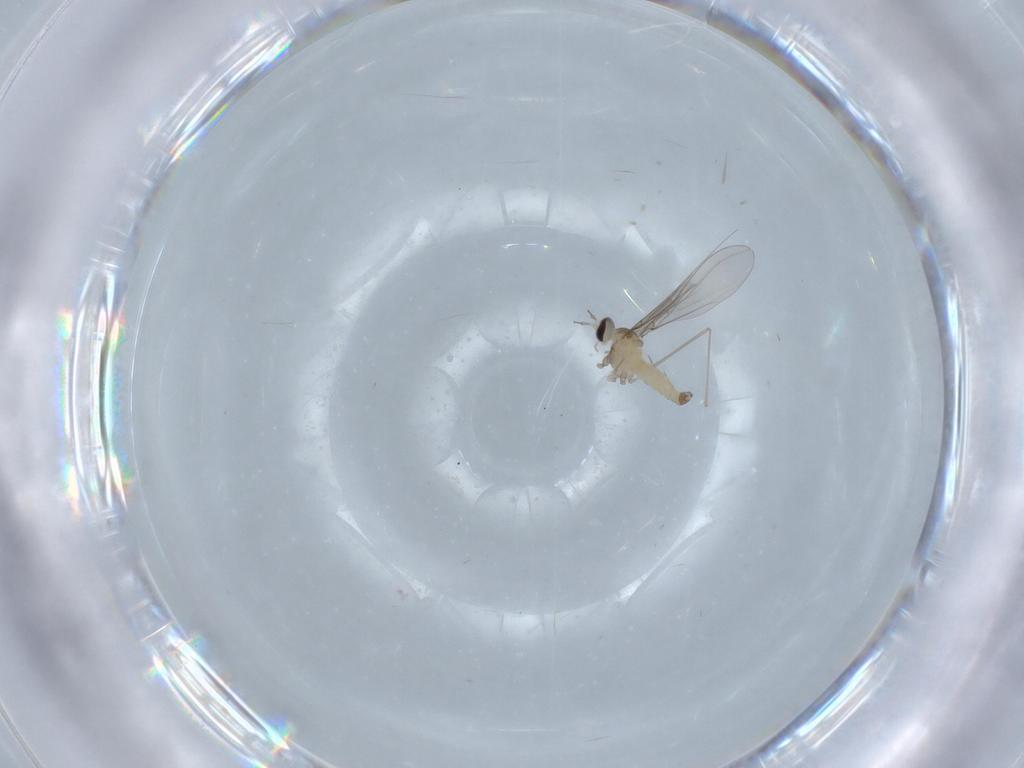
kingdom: Animalia
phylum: Arthropoda
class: Insecta
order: Diptera
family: Cecidomyiidae
